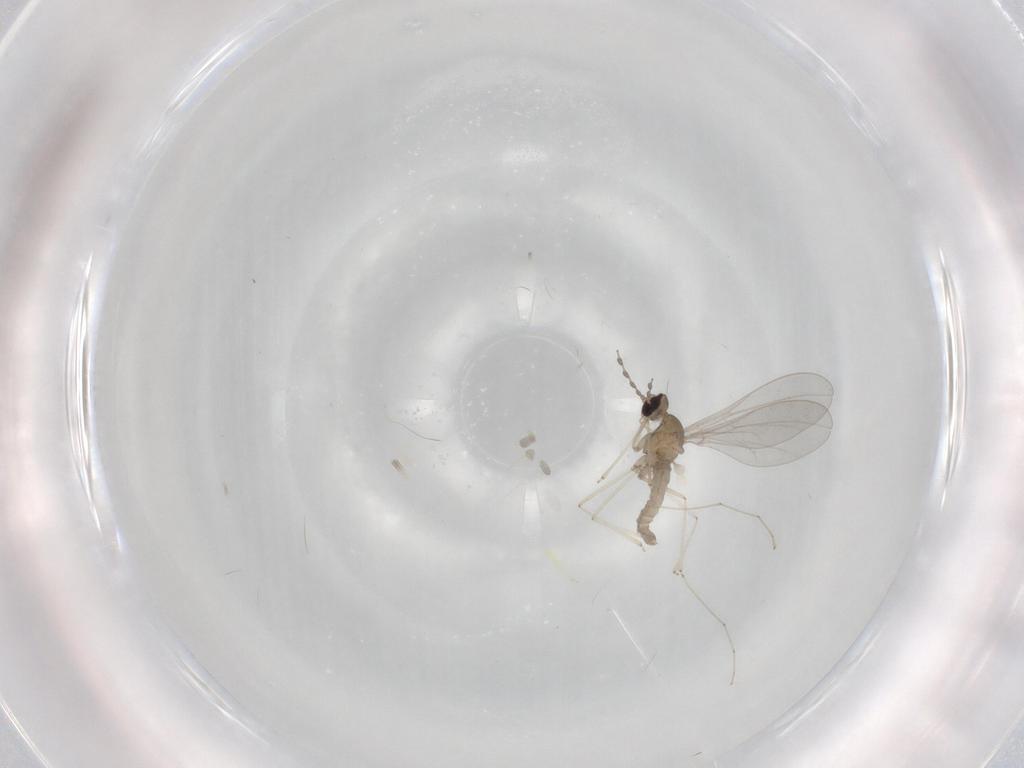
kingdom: Animalia
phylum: Arthropoda
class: Insecta
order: Diptera
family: Cecidomyiidae
